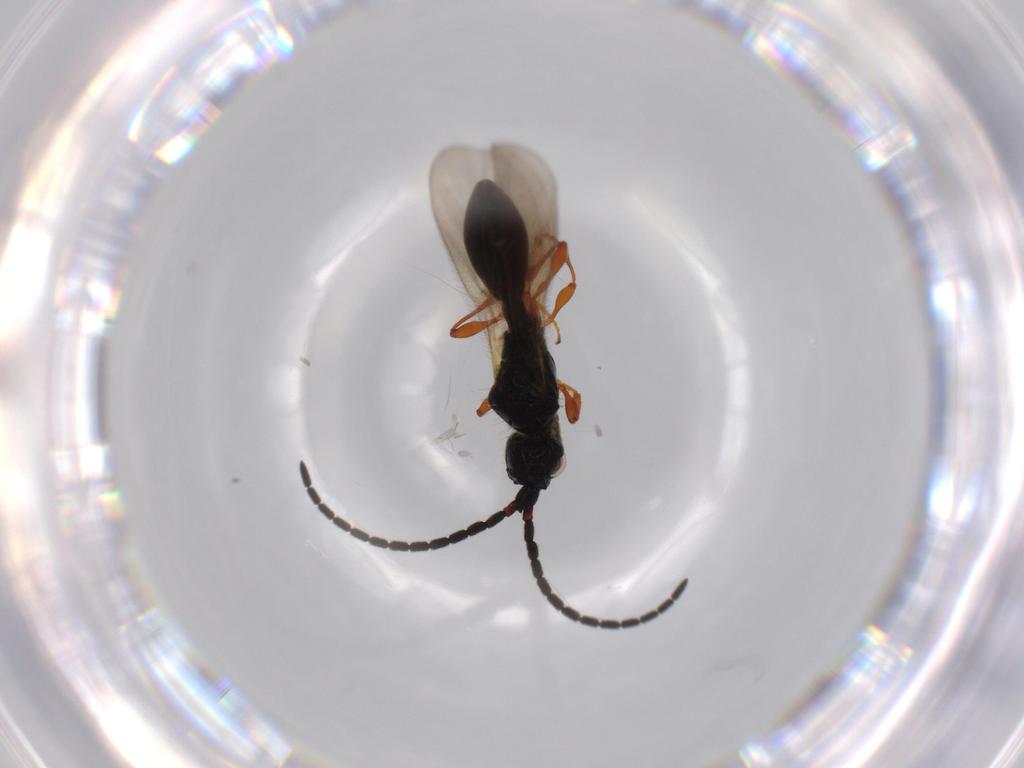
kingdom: Animalia
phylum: Arthropoda
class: Insecta
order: Hymenoptera
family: Diapriidae
